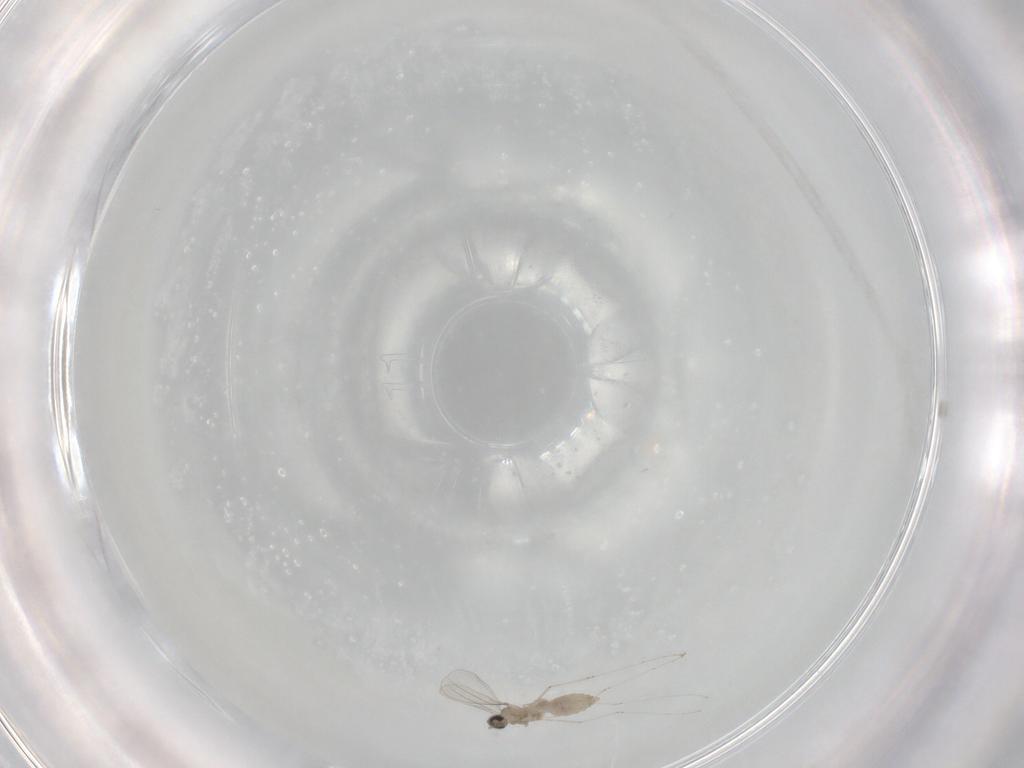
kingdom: Animalia
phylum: Arthropoda
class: Insecta
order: Diptera
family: Cecidomyiidae
